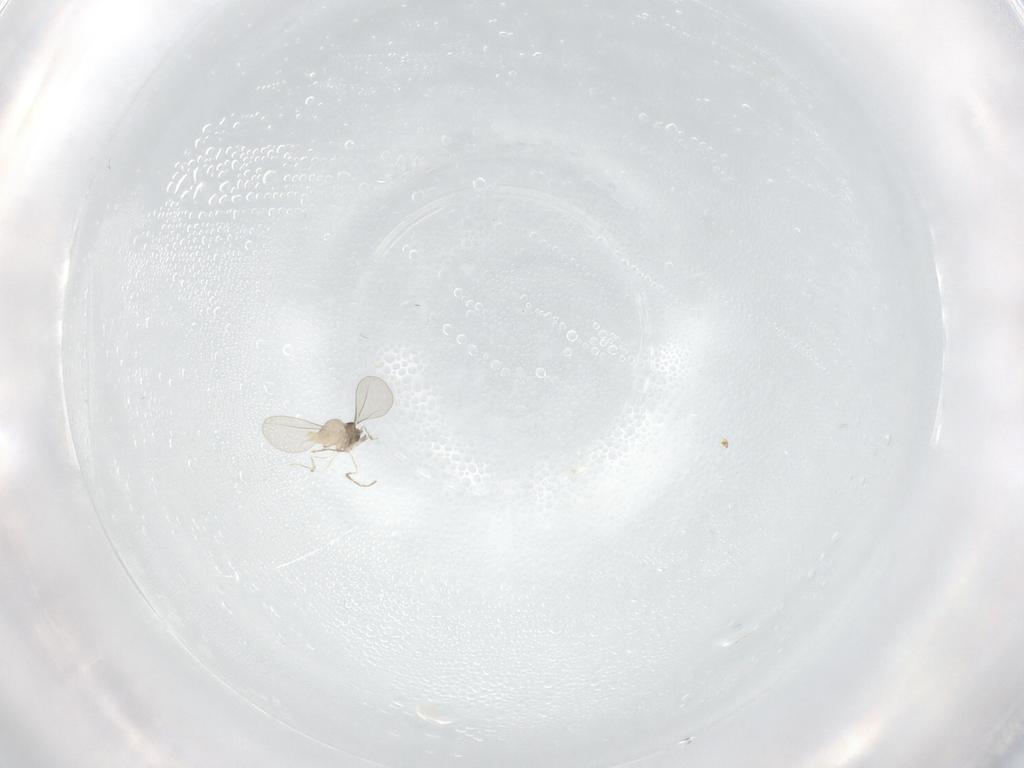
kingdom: Animalia
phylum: Arthropoda
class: Insecta
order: Diptera
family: Cecidomyiidae
